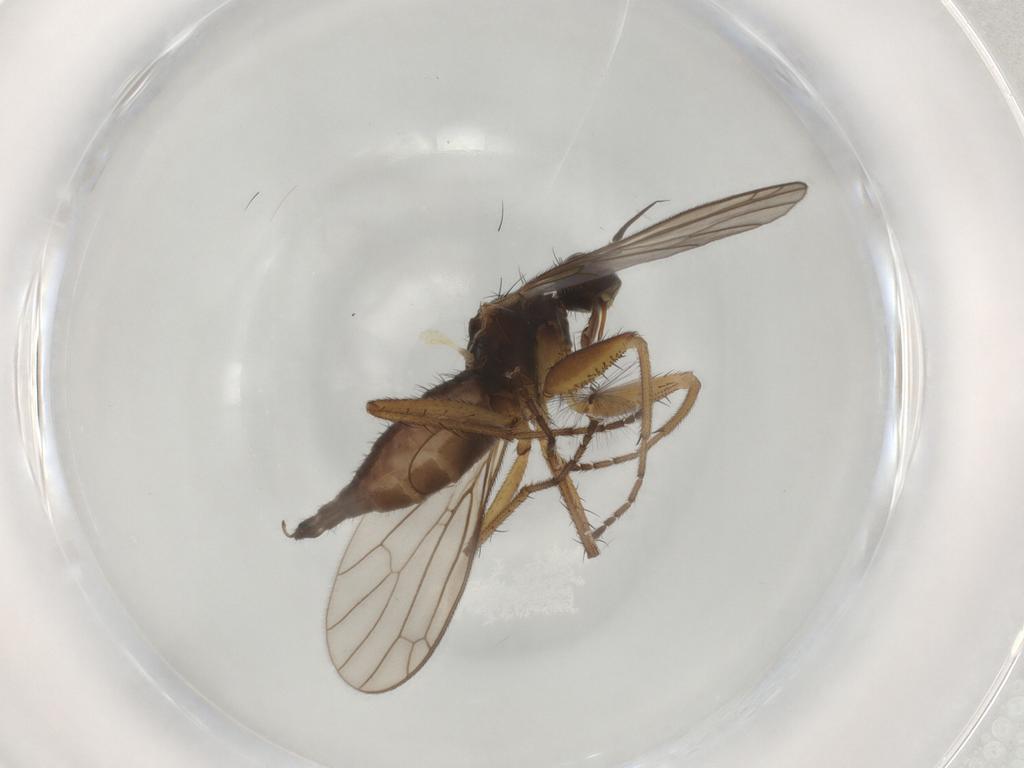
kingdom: Animalia
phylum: Arthropoda
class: Insecta
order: Diptera
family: Empididae
